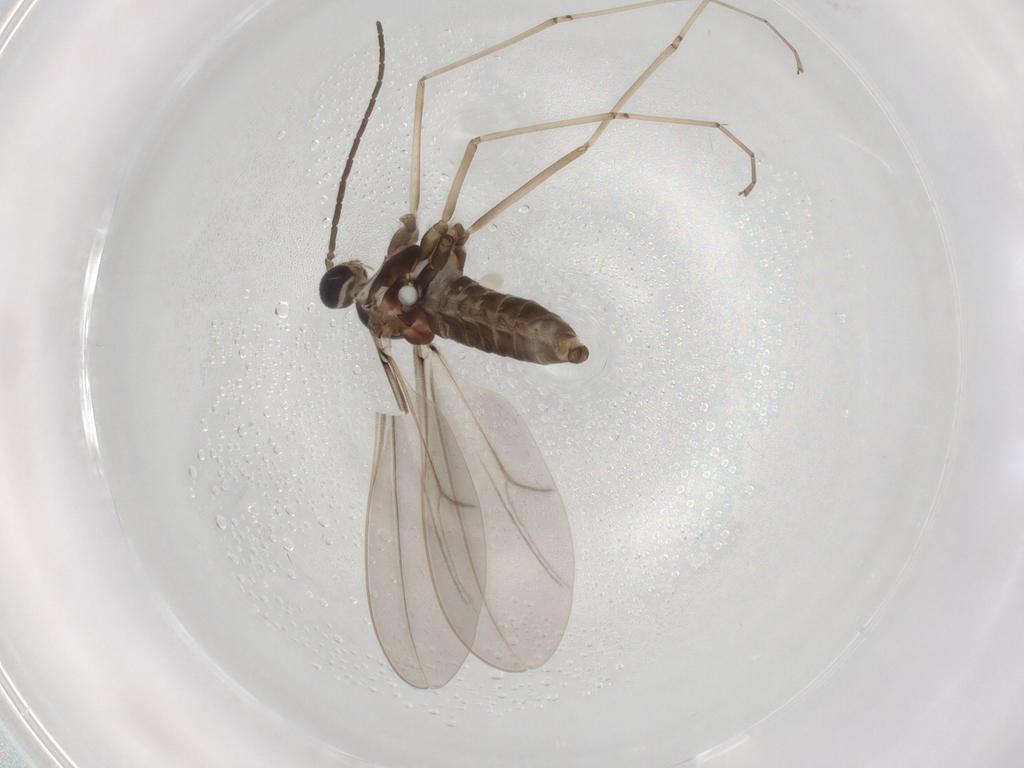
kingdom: Animalia
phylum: Arthropoda
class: Insecta
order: Diptera
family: Cecidomyiidae
